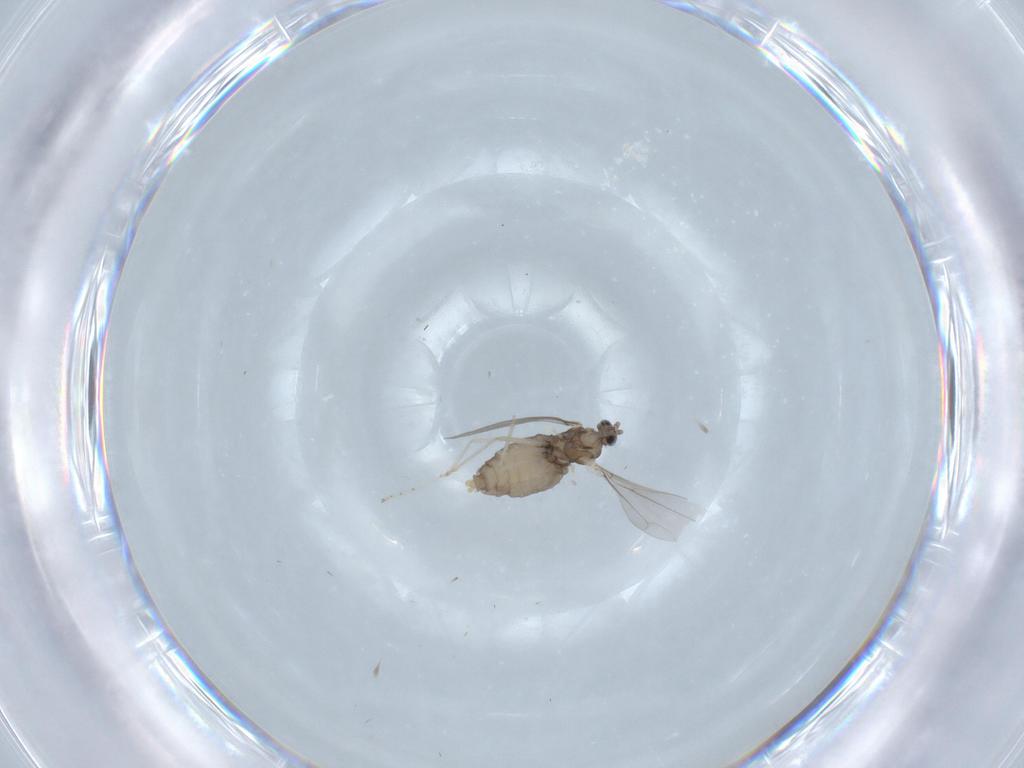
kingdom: Animalia
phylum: Arthropoda
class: Insecta
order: Diptera
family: Cecidomyiidae
